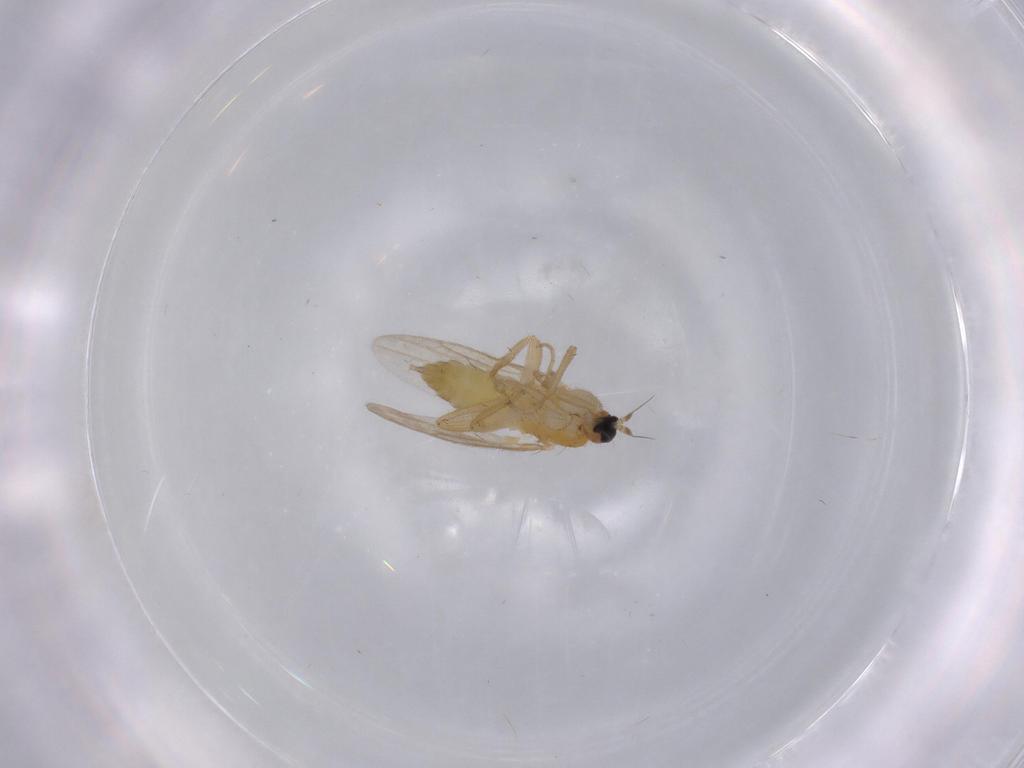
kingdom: Animalia
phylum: Arthropoda
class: Insecta
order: Diptera
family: Hybotidae
